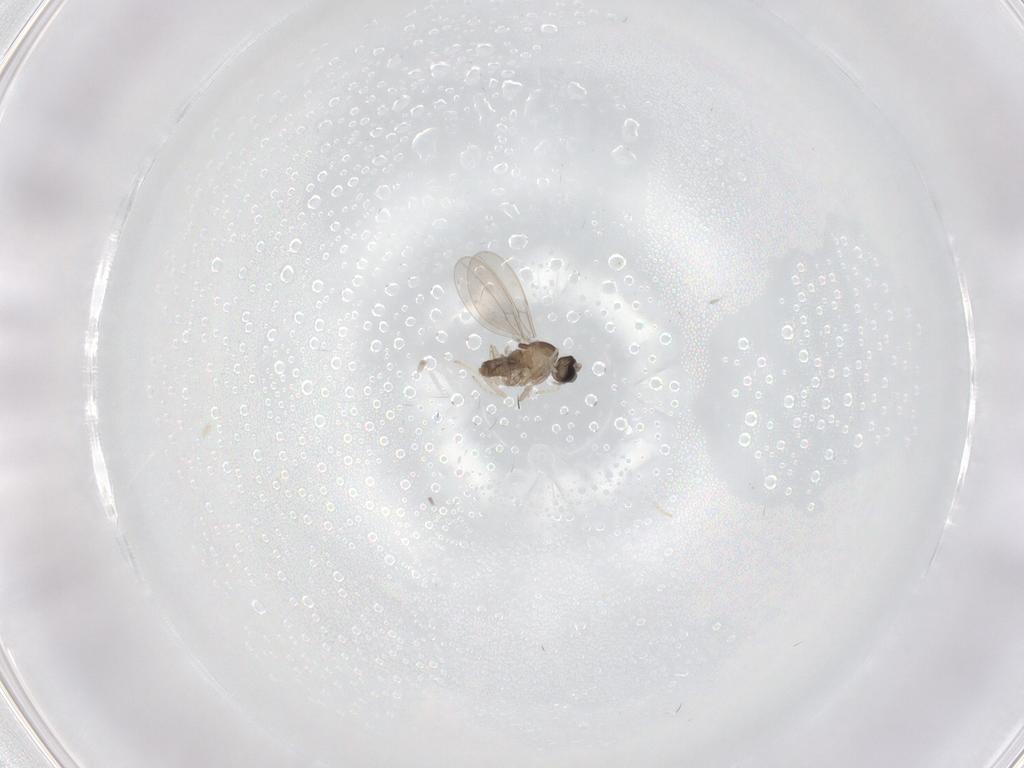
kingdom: Animalia
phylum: Arthropoda
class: Insecta
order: Diptera
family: Cecidomyiidae
